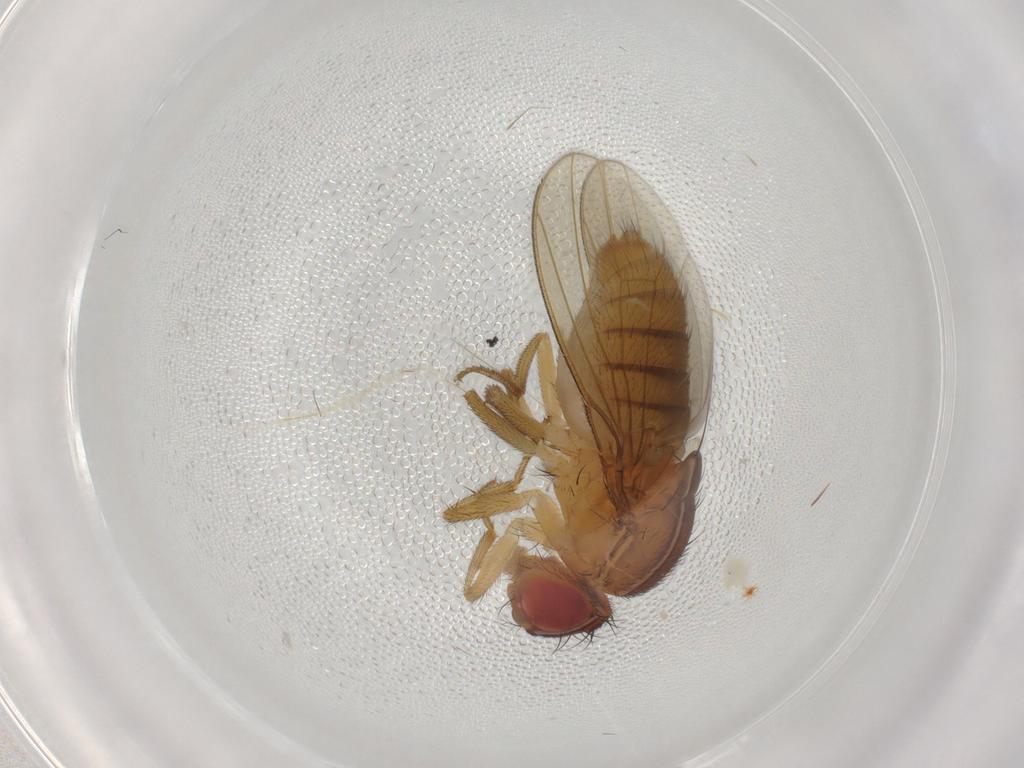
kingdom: Animalia
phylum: Arthropoda
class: Insecta
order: Diptera
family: Drosophilidae
